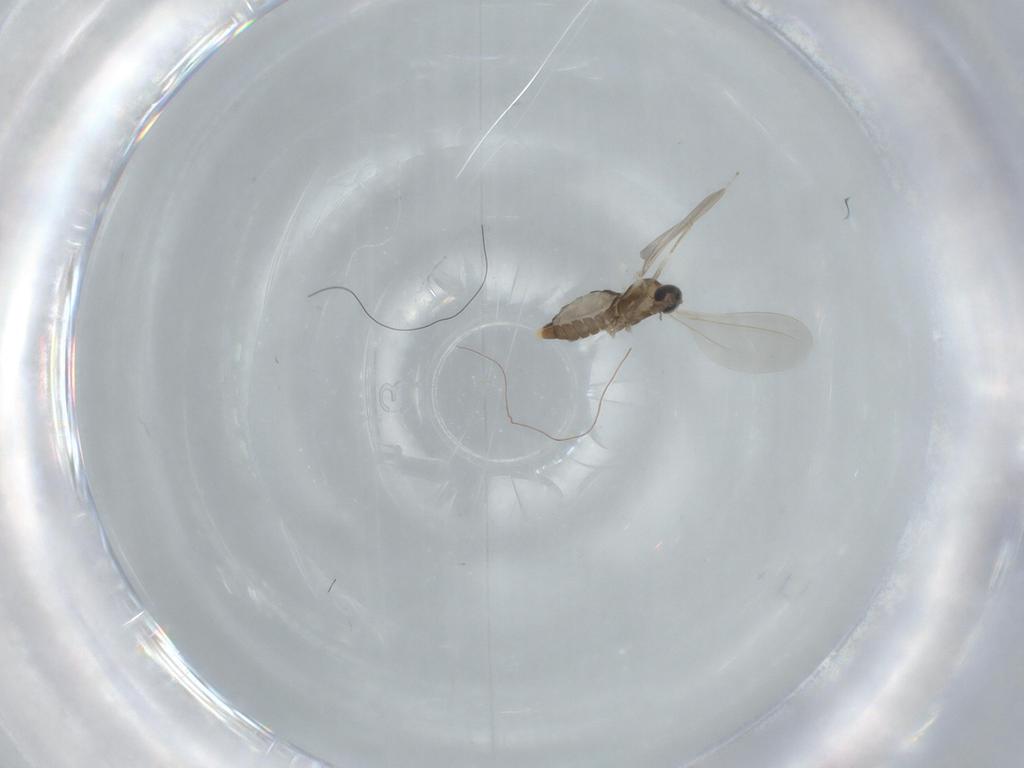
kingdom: Animalia
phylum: Arthropoda
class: Insecta
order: Diptera
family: Cecidomyiidae
